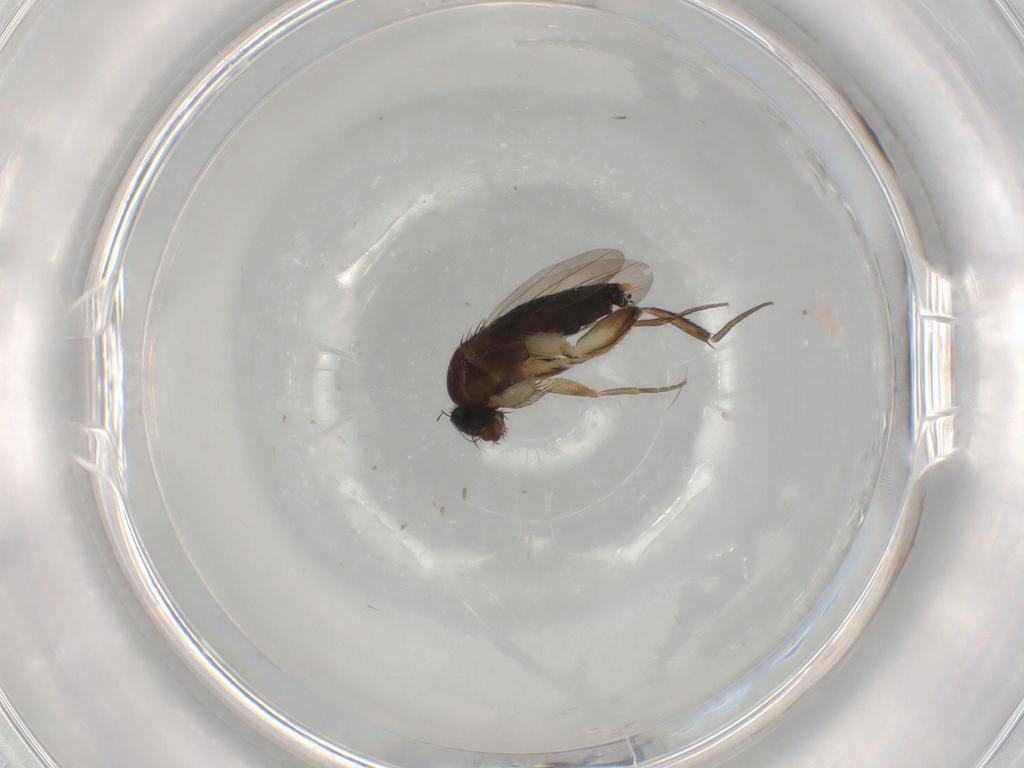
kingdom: Animalia
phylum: Arthropoda
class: Insecta
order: Diptera
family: Phoridae
